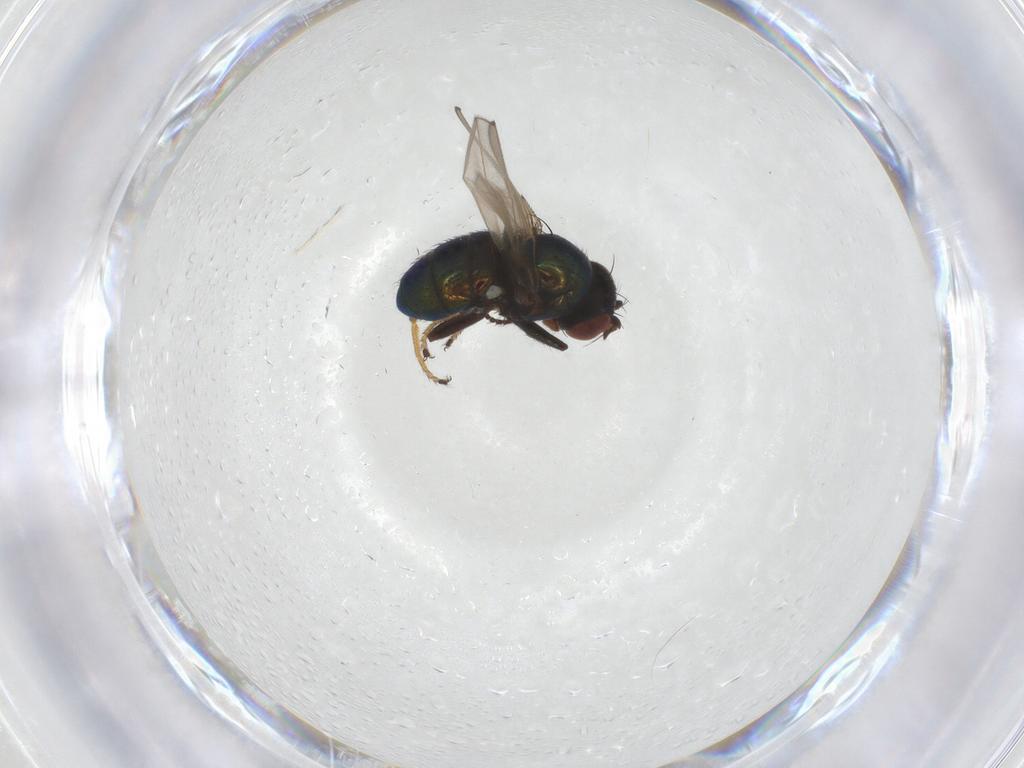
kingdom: Animalia
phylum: Arthropoda
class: Insecta
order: Diptera
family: Ephydridae
